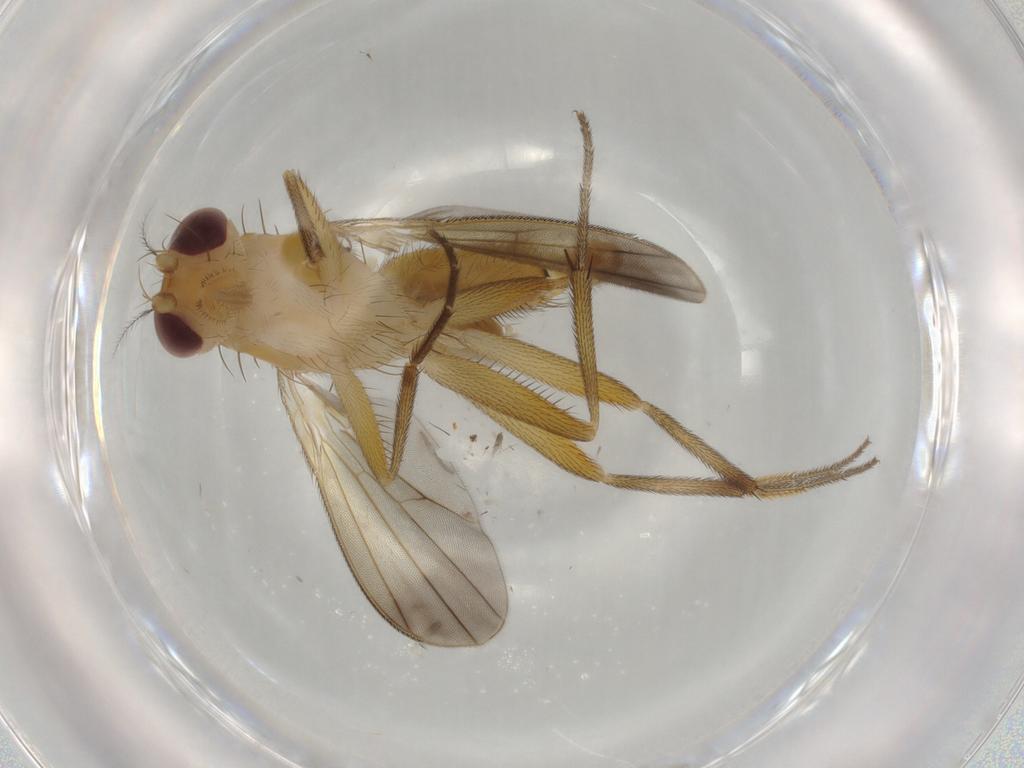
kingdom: Animalia
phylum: Arthropoda
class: Insecta
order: Diptera
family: Clusiidae
